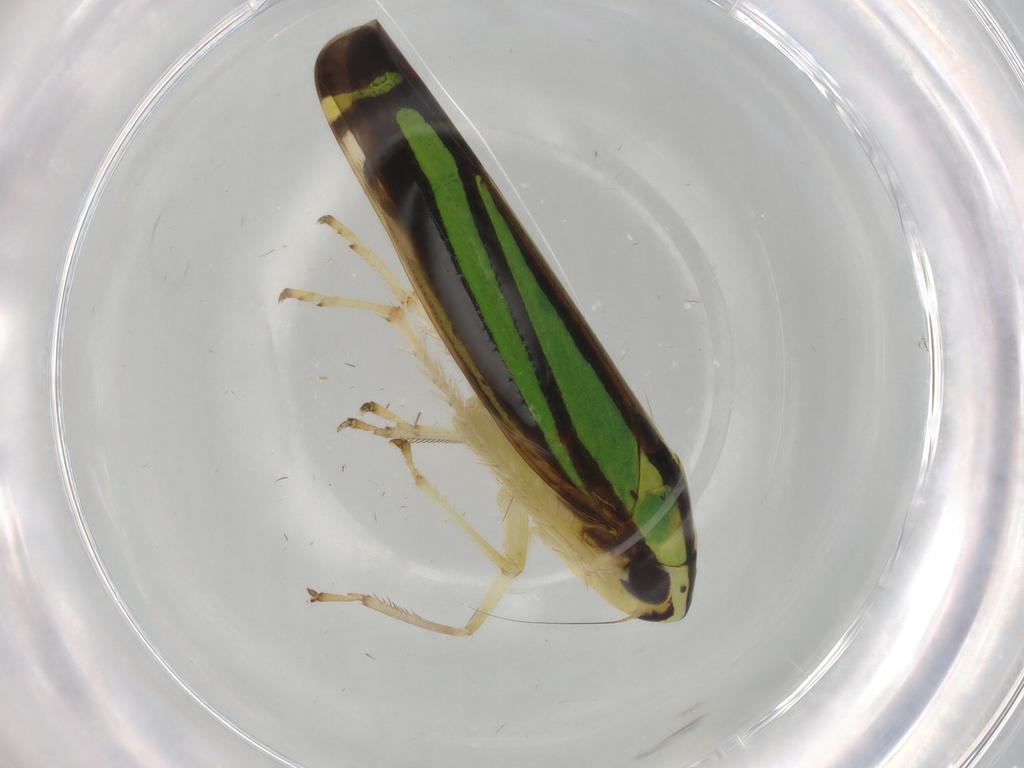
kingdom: Animalia
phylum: Arthropoda
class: Insecta
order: Hemiptera
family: Cicadellidae
